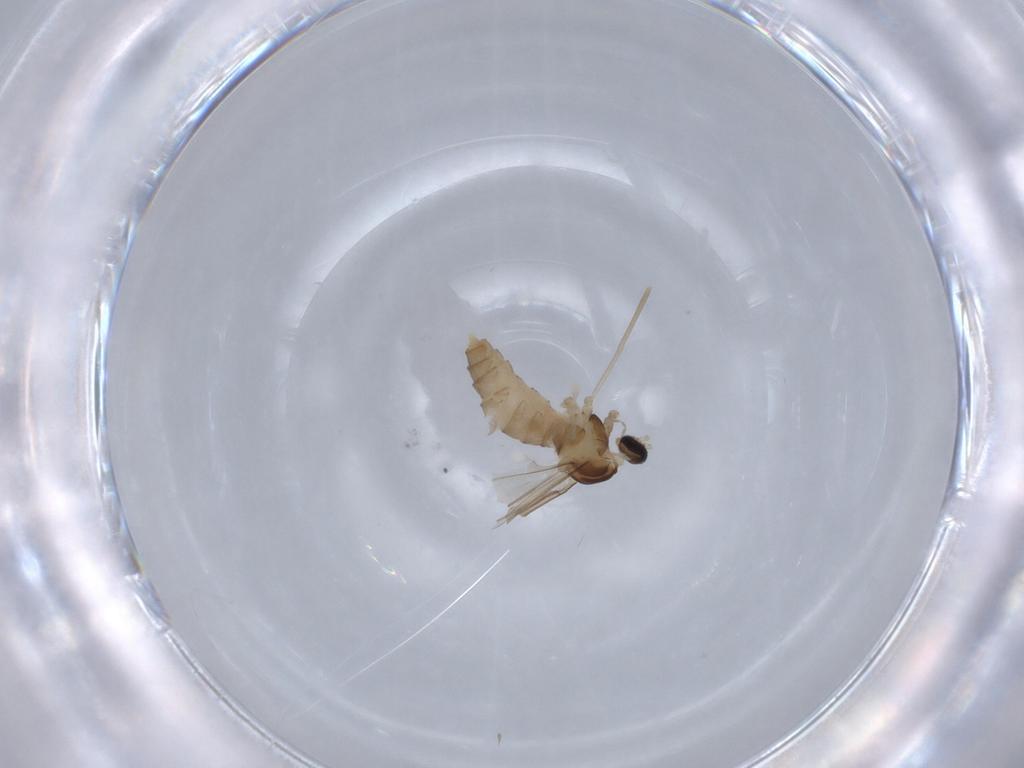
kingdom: Animalia
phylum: Arthropoda
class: Insecta
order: Diptera
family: Cecidomyiidae
